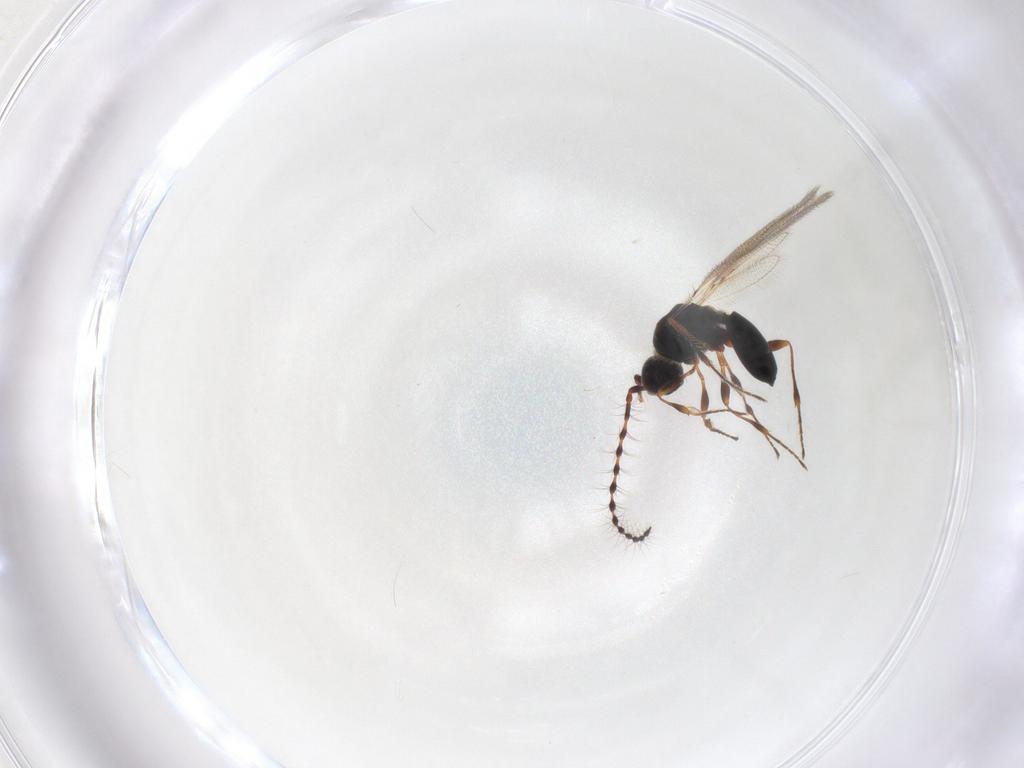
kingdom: Animalia
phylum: Arthropoda
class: Insecta
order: Hymenoptera
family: Diapriidae
